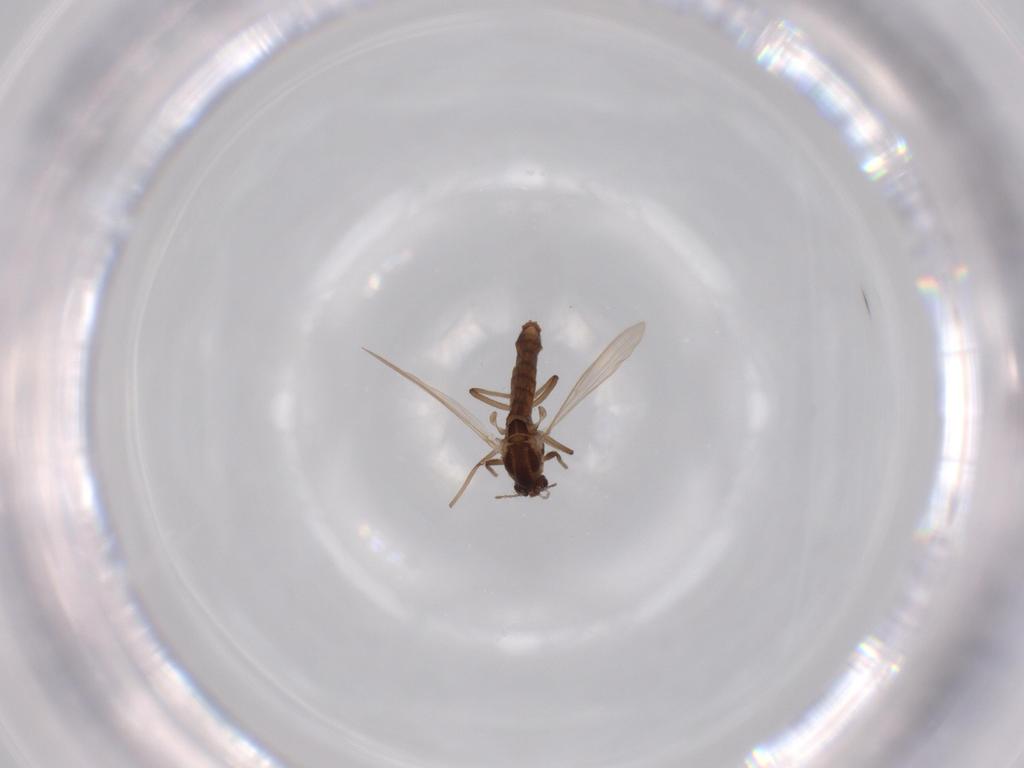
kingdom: Animalia
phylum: Arthropoda
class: Insecta
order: Diptera
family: Chironomidae
